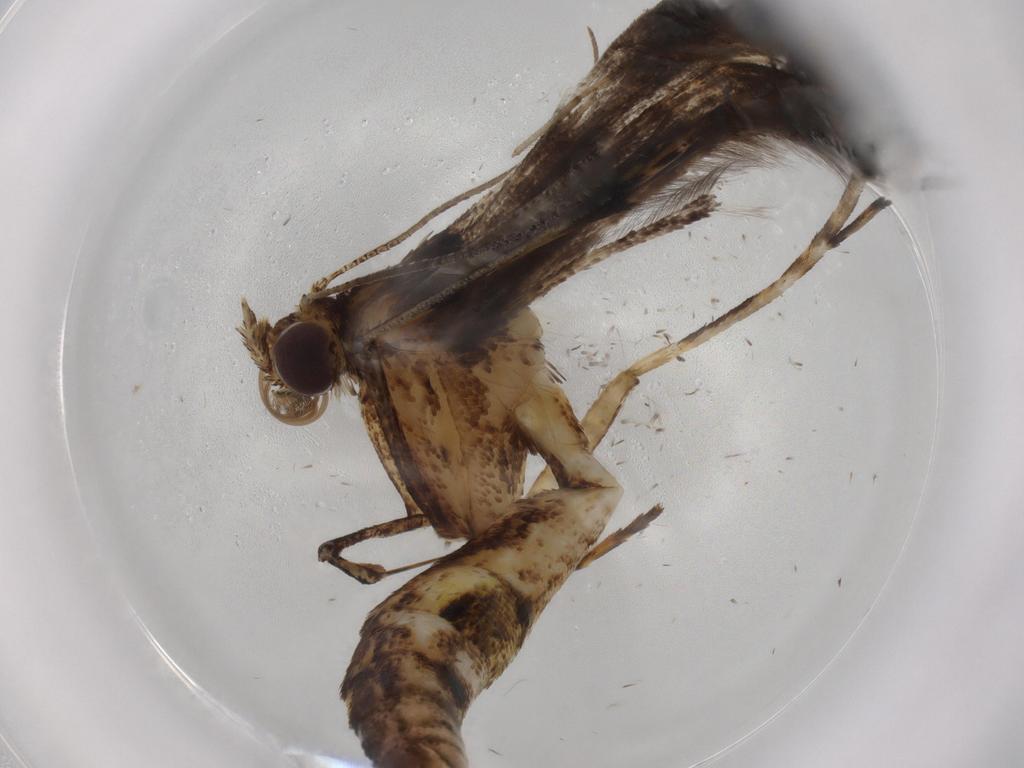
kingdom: Animalia
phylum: Arthropoda
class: Insecta
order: Lepidoptera
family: Pterophoridae
